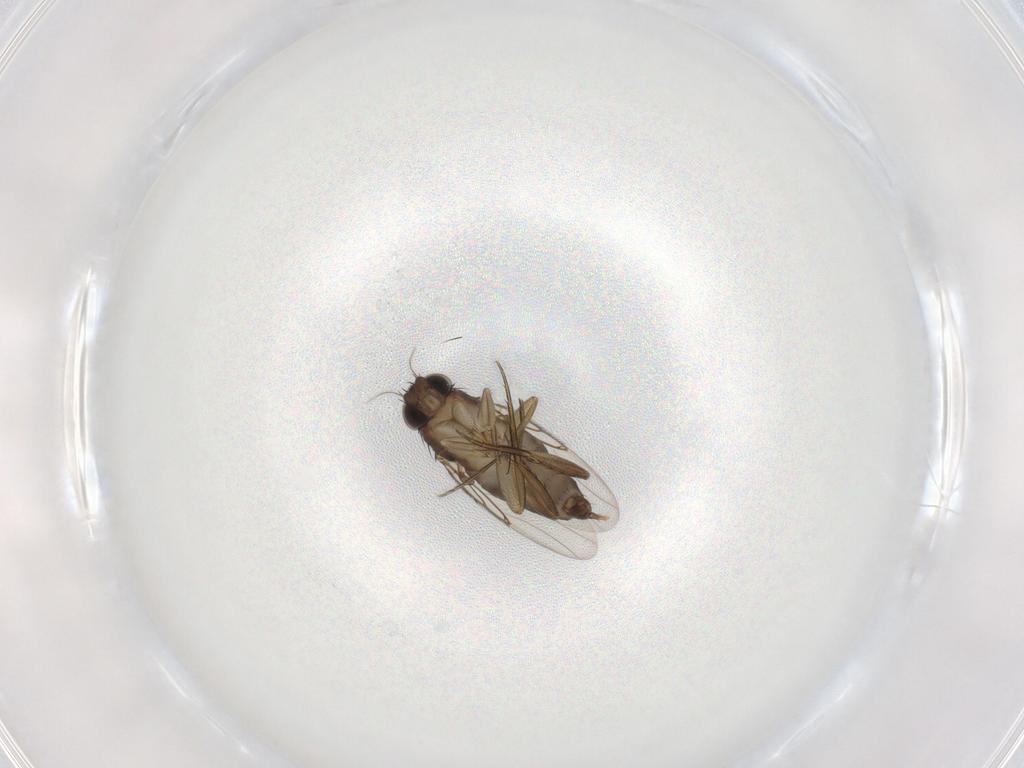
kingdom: Animalia
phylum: Arthropoda
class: Insecta
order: Diptera
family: Phoridae
